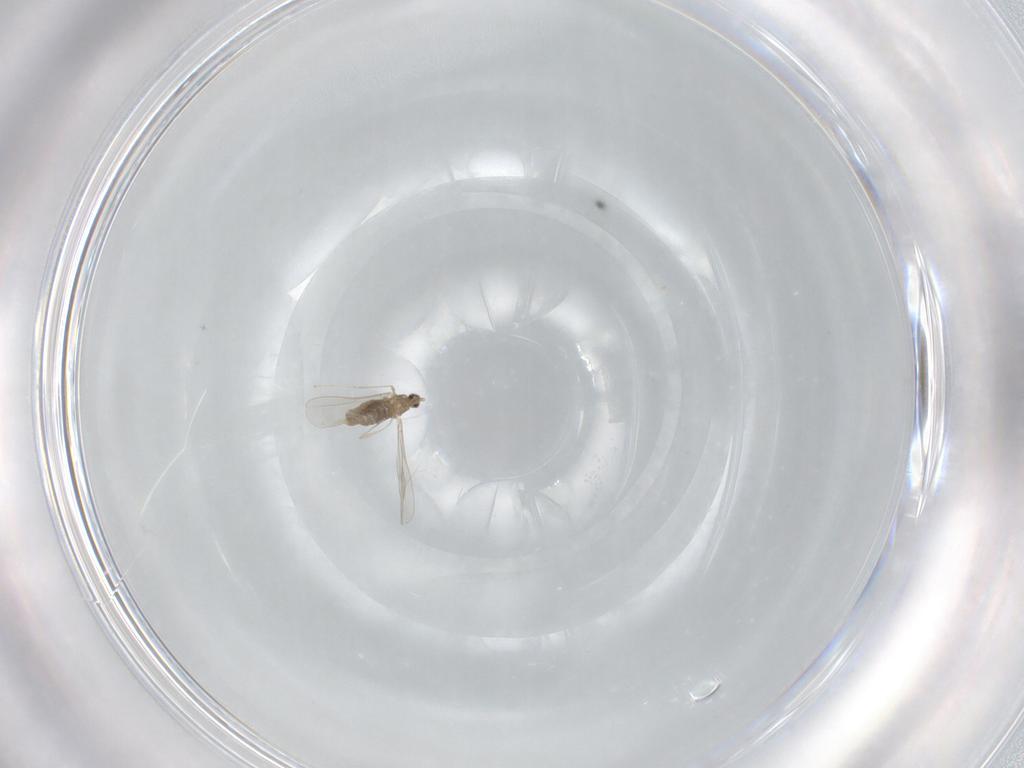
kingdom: Animalia
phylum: Arthropoda
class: Insecta
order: Diptera
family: Cecidomyiidae
